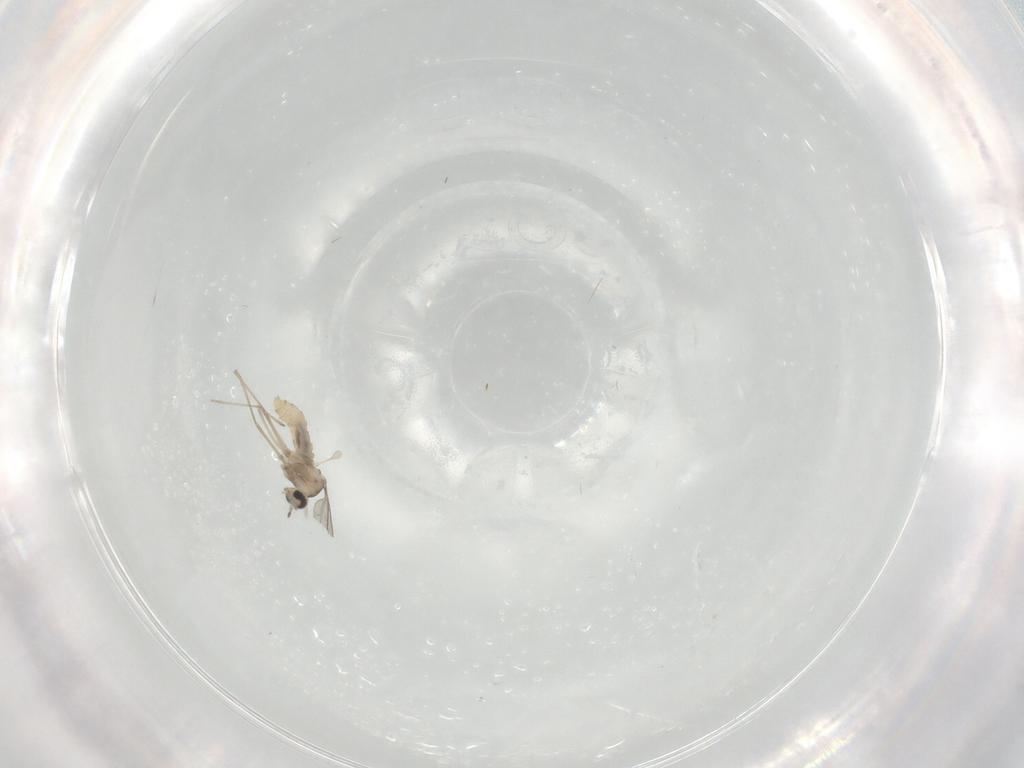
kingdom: Animalia
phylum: Arthropoda
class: Insecta
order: Diptera
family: Cecidomyiidae
